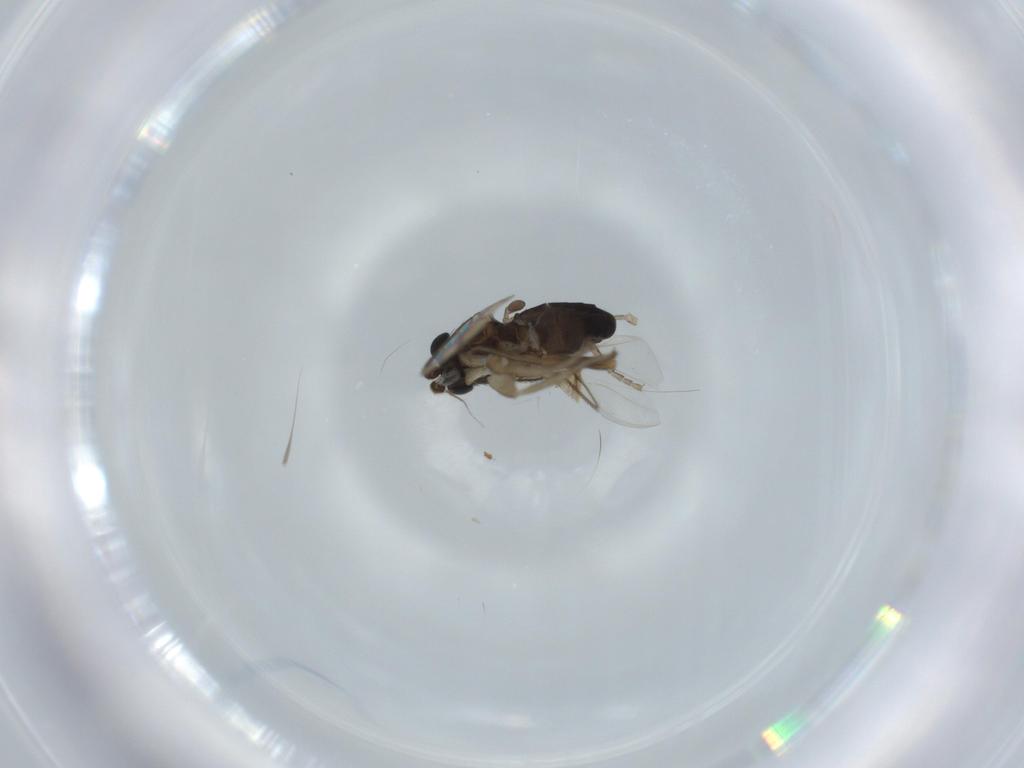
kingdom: Animalia
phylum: Arthropoda
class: Insecta
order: Diptera
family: Phoridae
